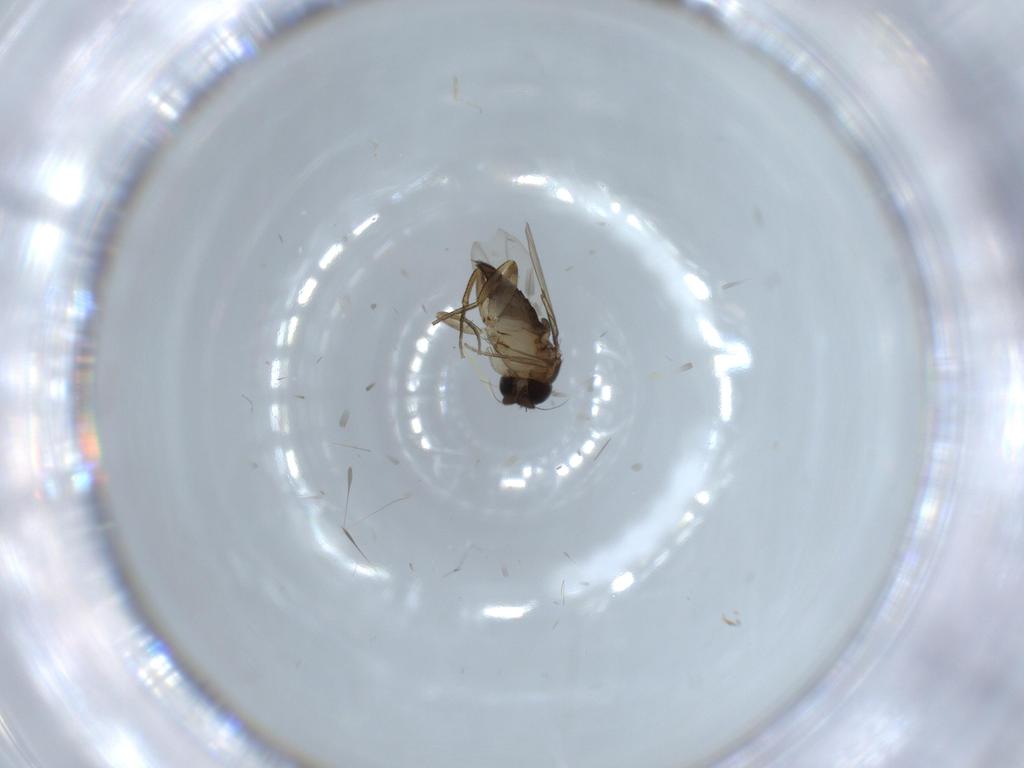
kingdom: Animalia
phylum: Arthropoda
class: Insecta
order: Diptera
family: Phoridae
